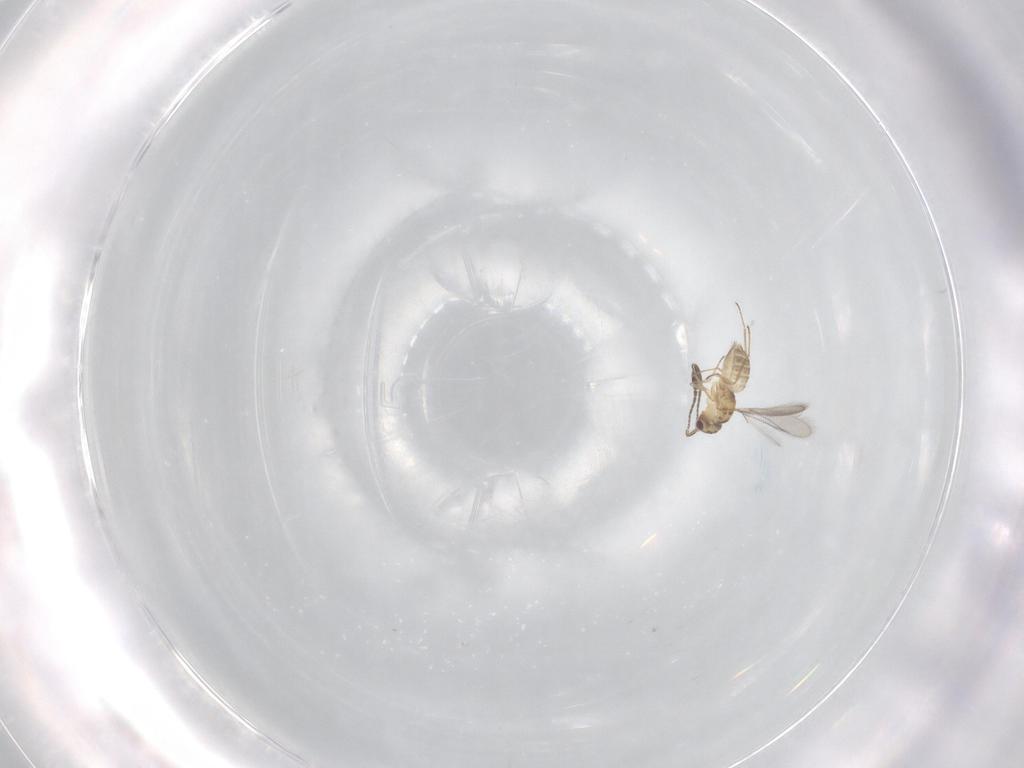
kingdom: Animalia
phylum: Arthropoda
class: Insecta
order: Hymenoptera
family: Mymaridae
